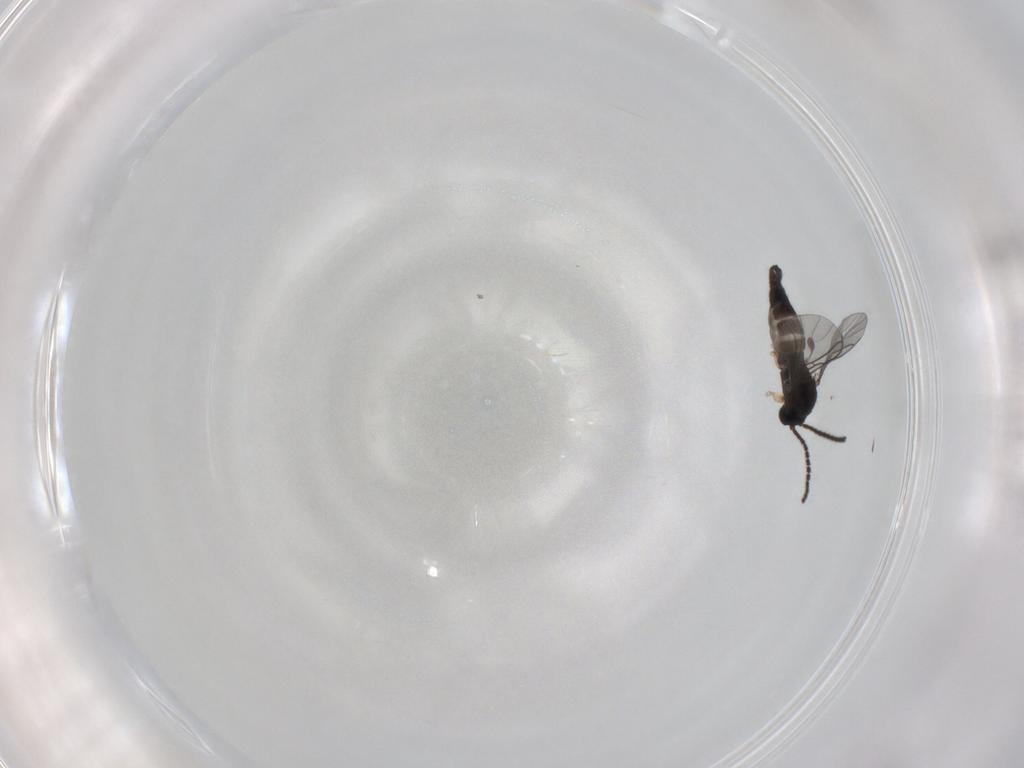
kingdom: Animalia
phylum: Arthropoda
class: Insecta
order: Diptera
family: Sciaridae
